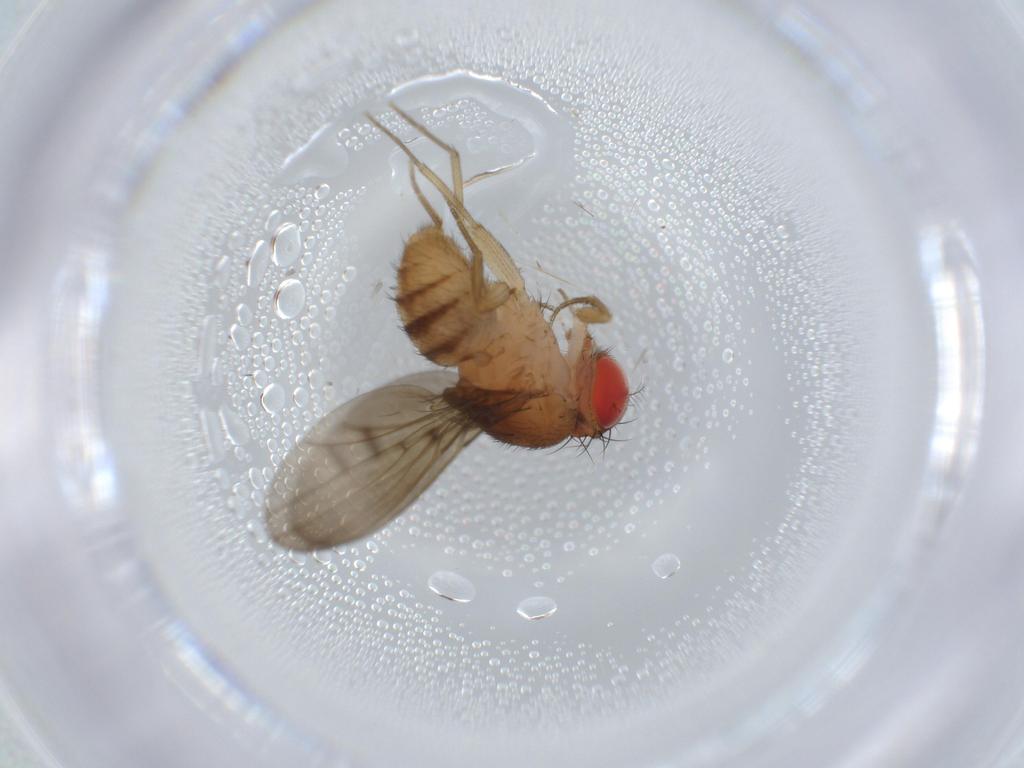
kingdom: Animalia
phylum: Arthropoda
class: Insecta
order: Diptera
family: Drosophilidae
